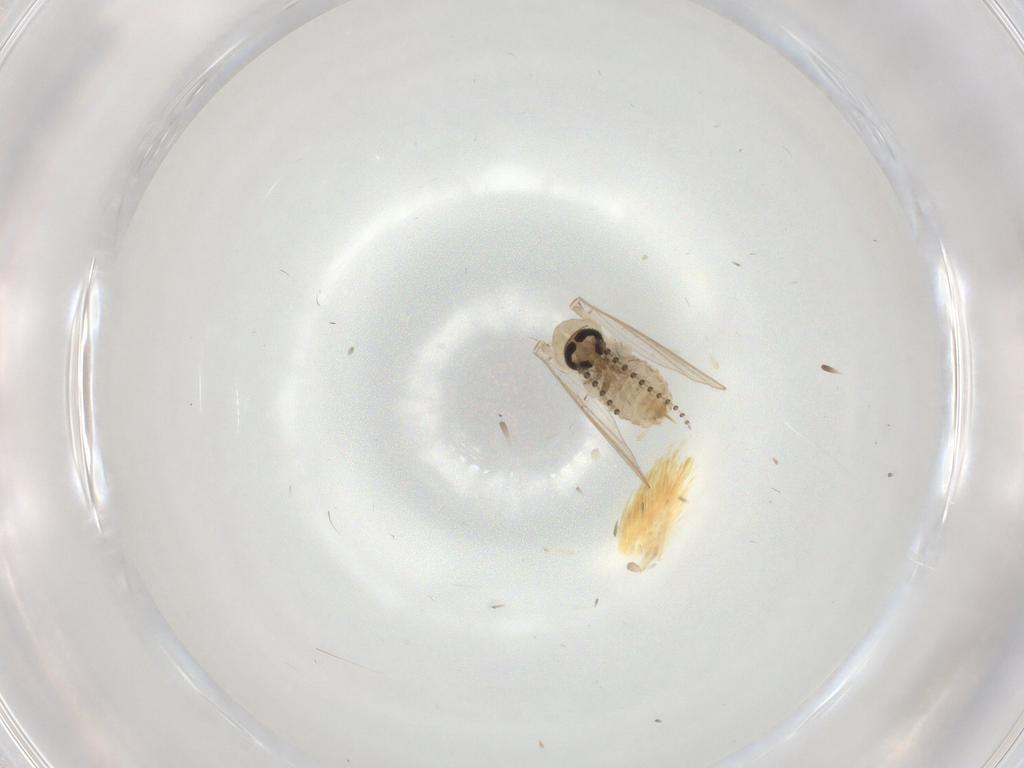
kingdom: Animalia
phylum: Arthropoda
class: Insecta
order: Diptera
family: Psychodidae
